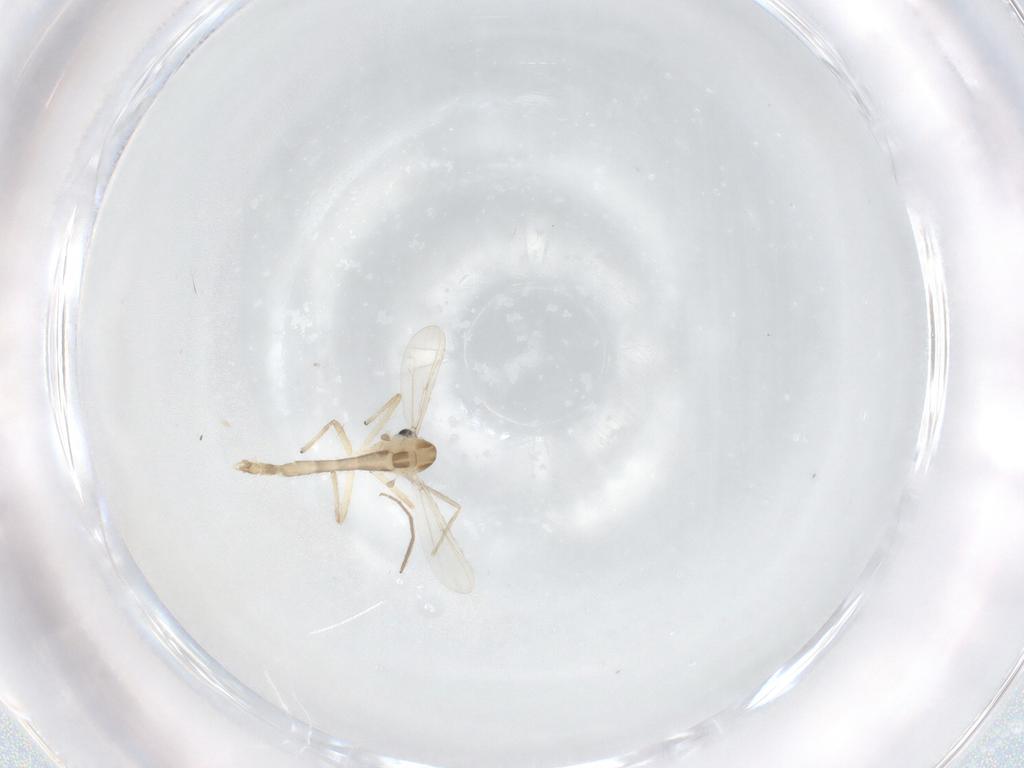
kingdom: Animalia
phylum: Arthropoda
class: Insecta
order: Diptera
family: Chironomidae
